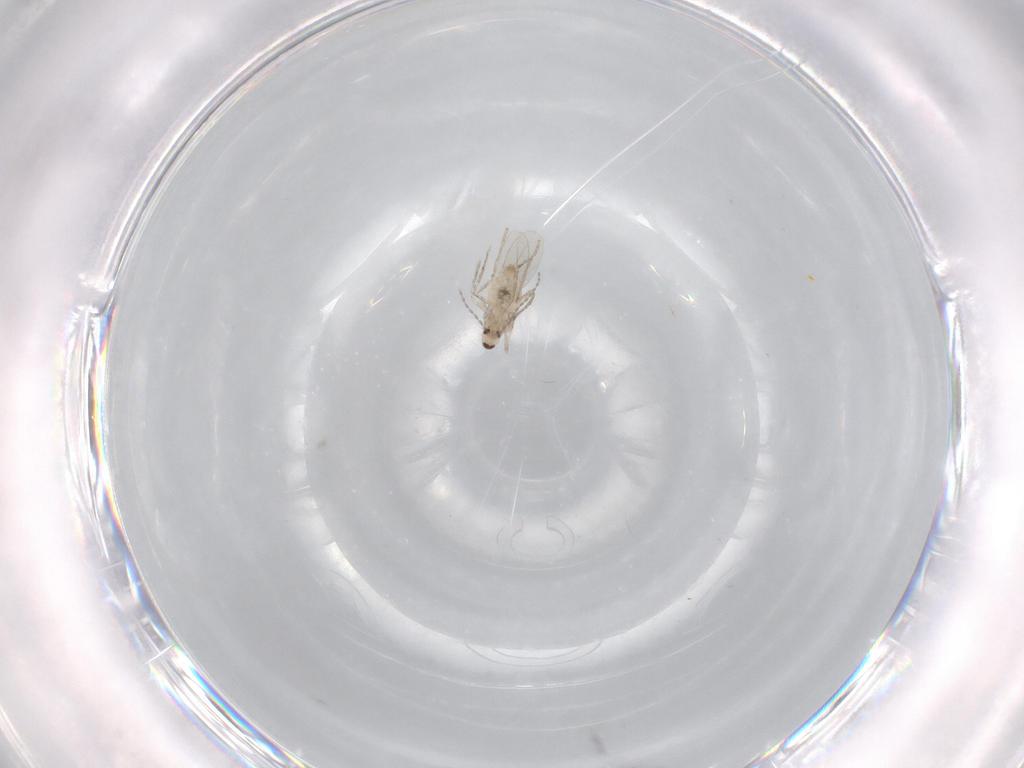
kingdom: Animalia
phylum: Arthropoda
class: Insecta
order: Diptera
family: Cecidomyiidae
